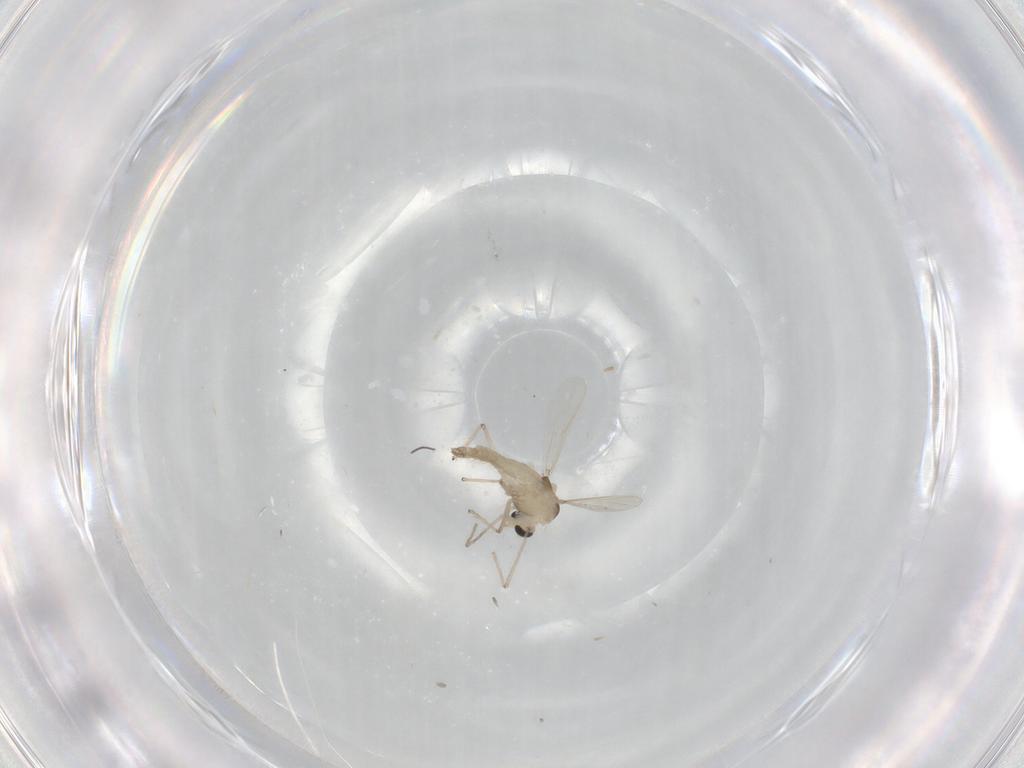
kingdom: Animalia
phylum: Arthropoda
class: Insecta
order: Diptera
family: Chironomidae
